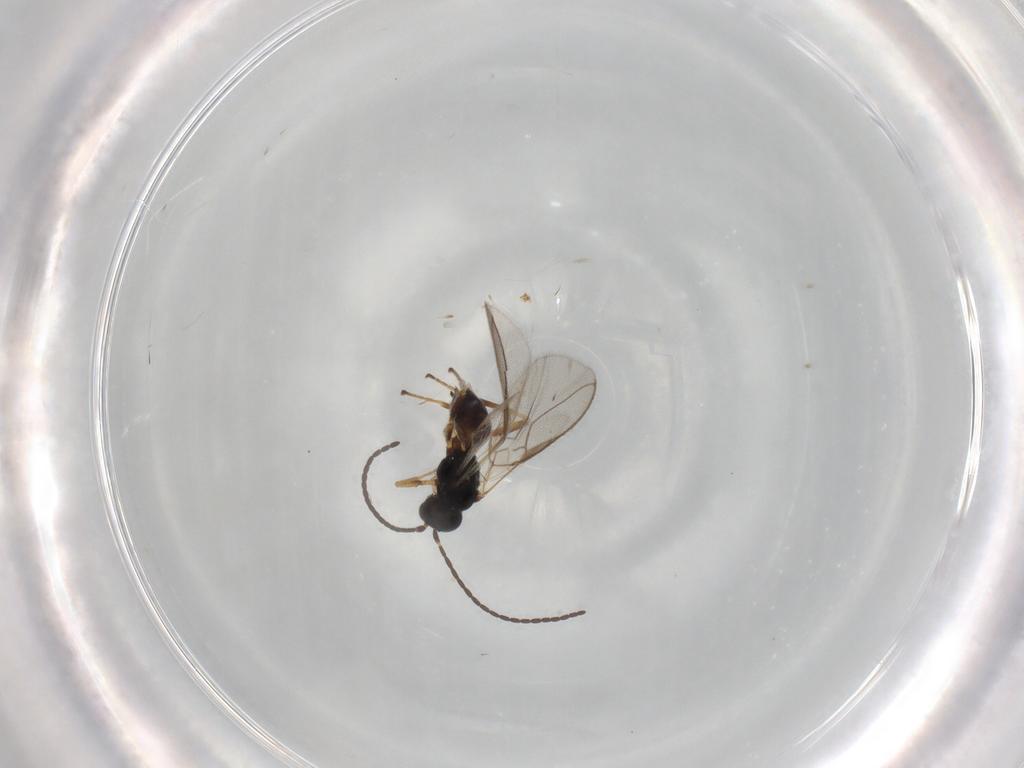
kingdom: Animalia
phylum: Arthropoda
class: Insecta
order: Hymenoptera
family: Braconidae
